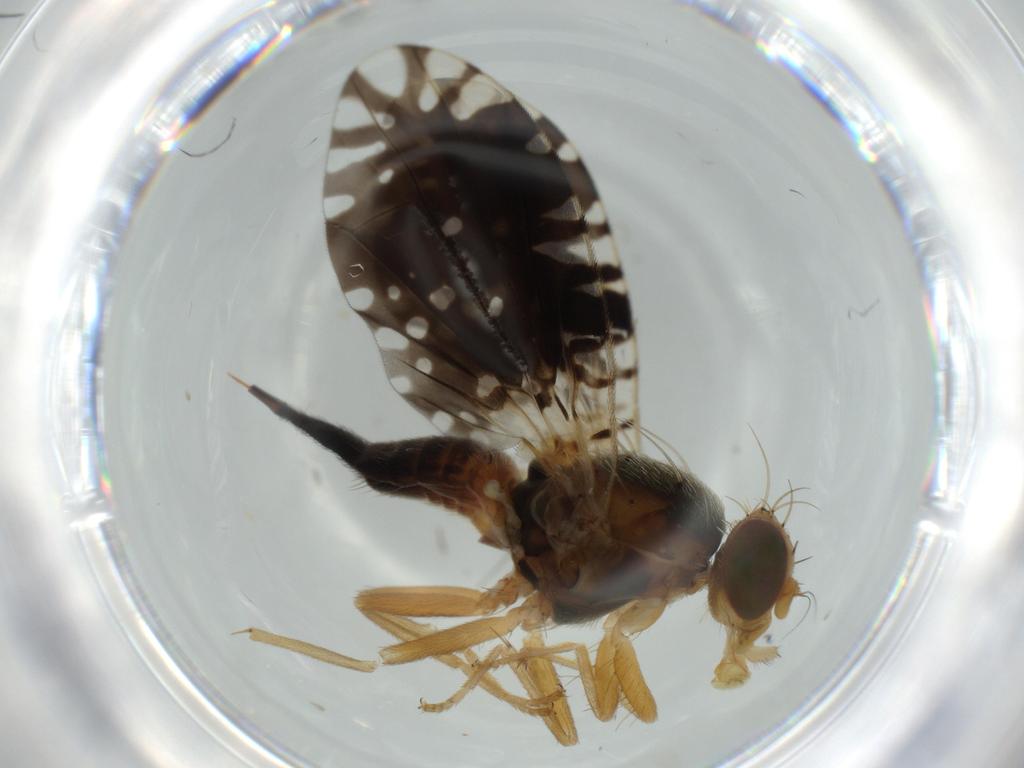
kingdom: Animalia
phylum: Arthropoda
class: Insecta
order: Diptera
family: Tephritidae
